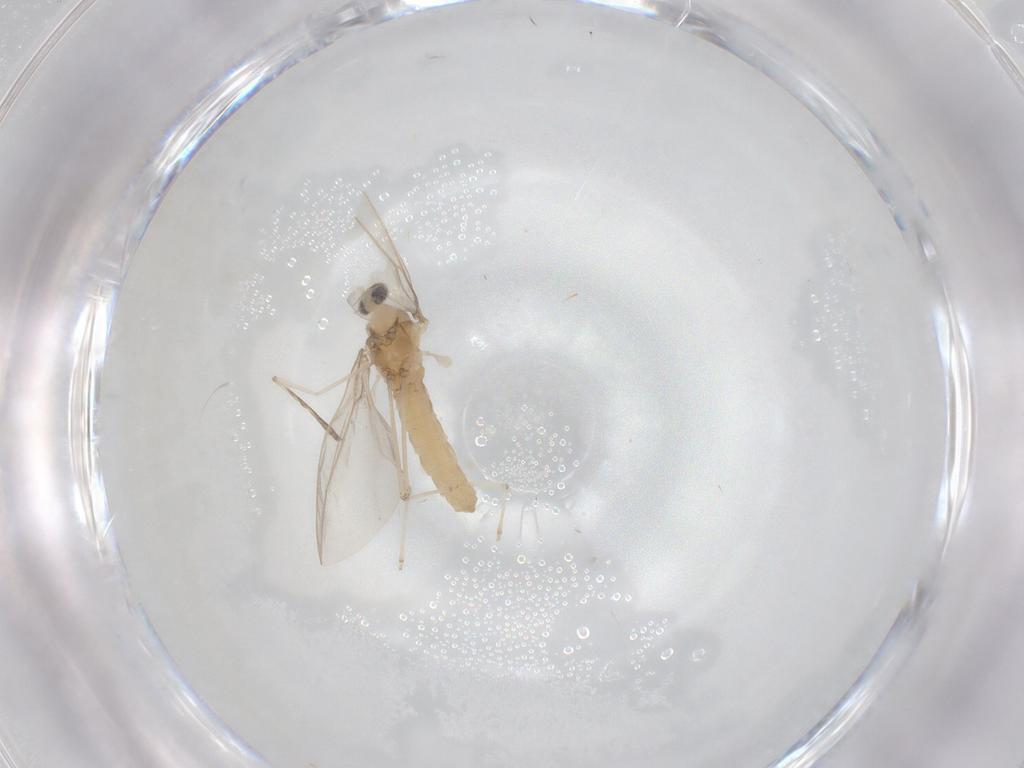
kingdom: Animalia
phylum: Arthropoda
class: Insecta
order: Diptera
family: Cecidomyiidae
